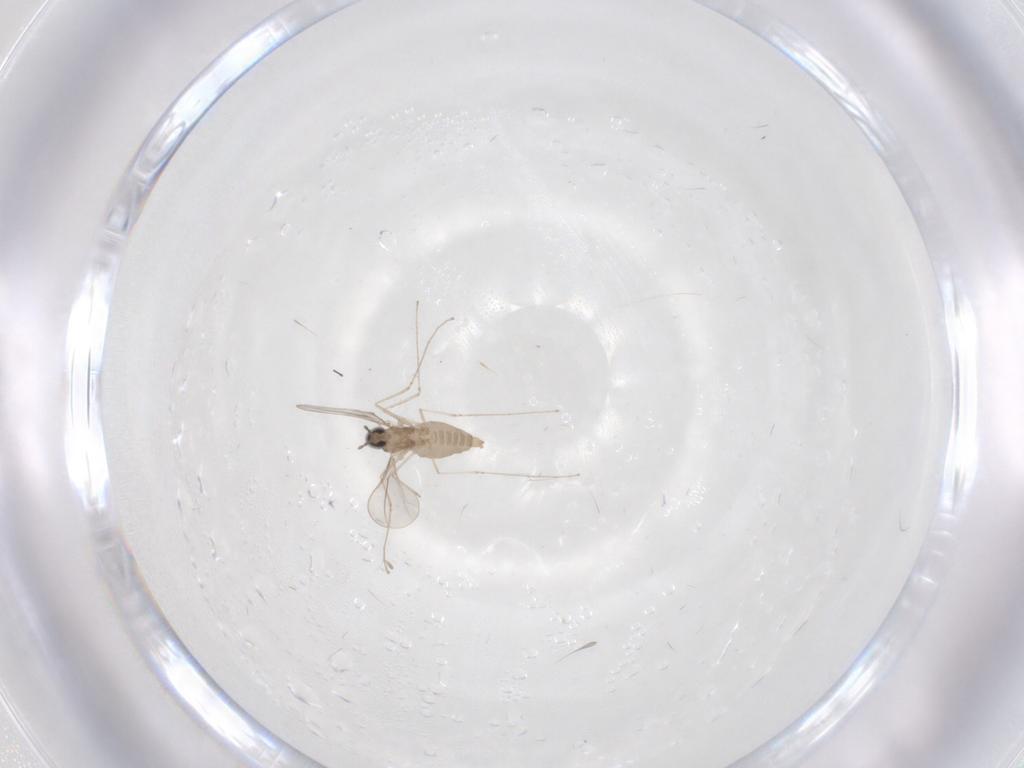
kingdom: Animalia
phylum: Arthropoda
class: Insecta
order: Diptera
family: Cecidomyiidae
